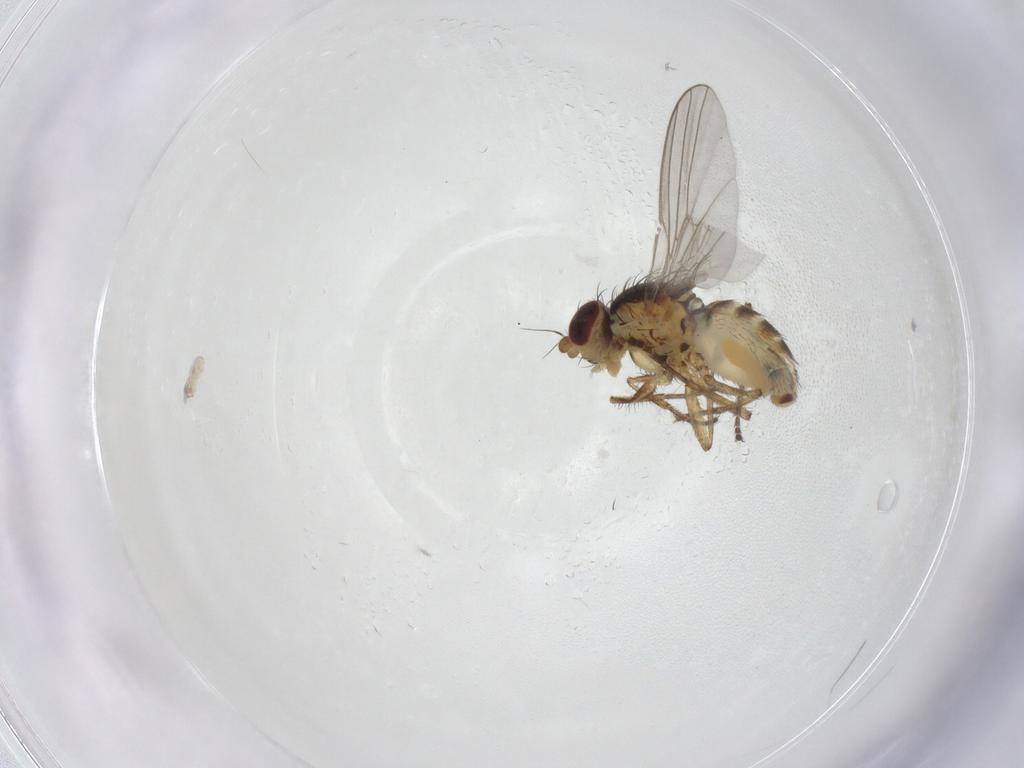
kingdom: Animalia
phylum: Arthropoda
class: Insecta
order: Diptera
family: Agromyzidae
